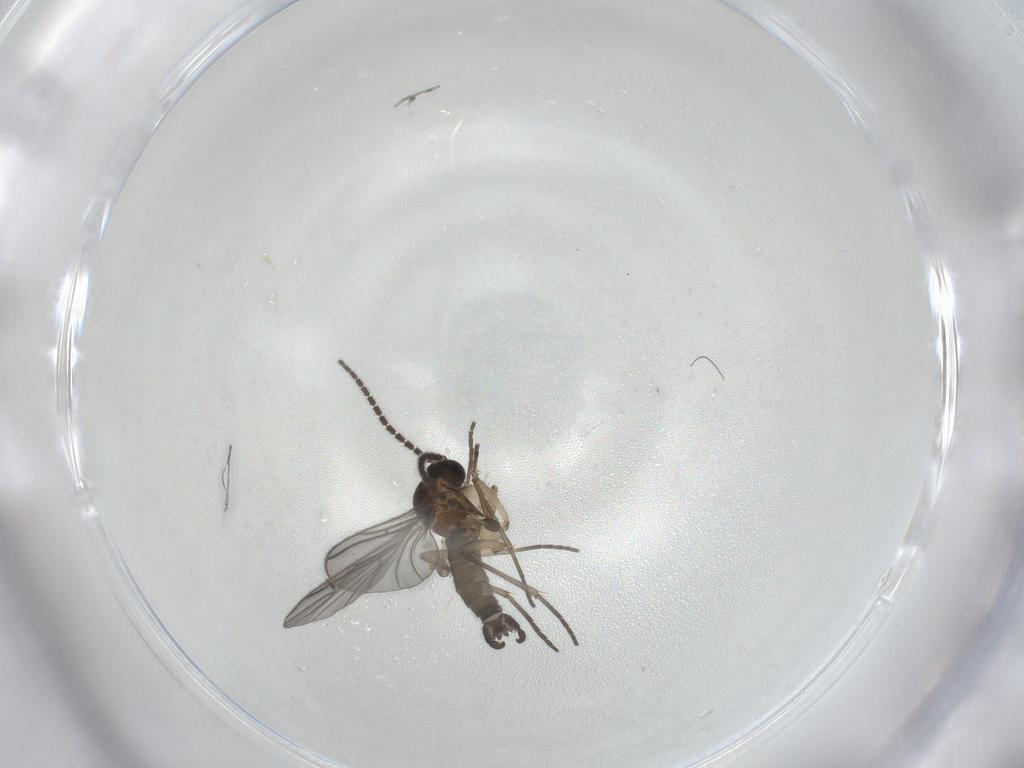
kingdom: Animalia
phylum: Arthropoda
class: Insecta
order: Diptera
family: Sciaridae
